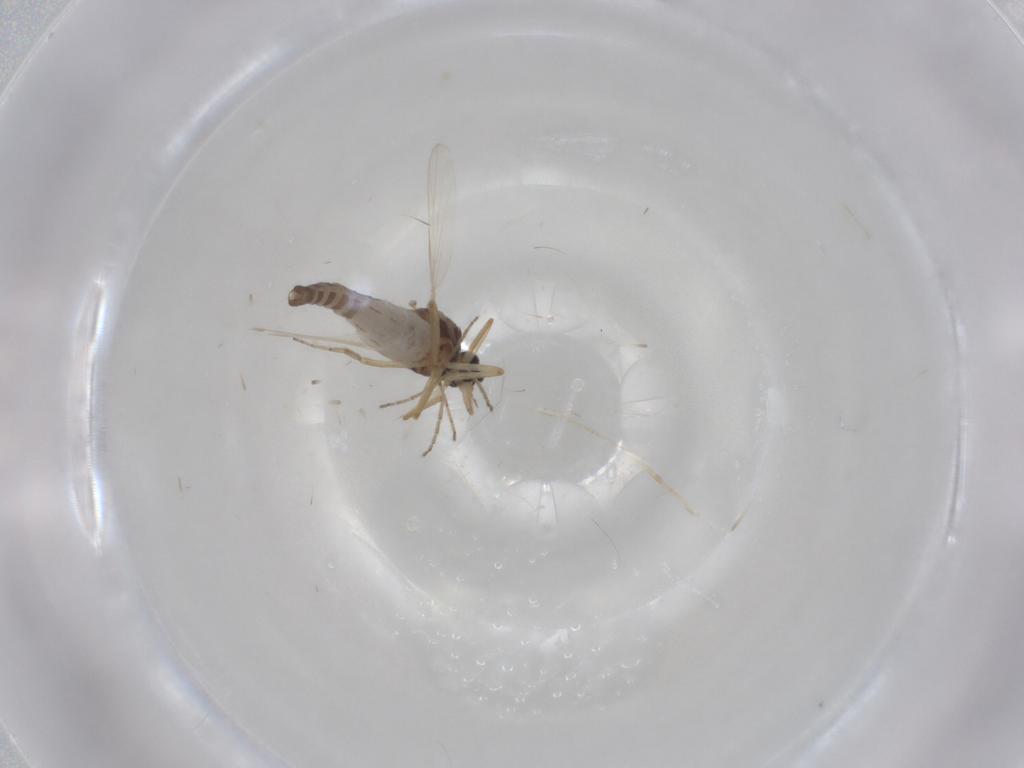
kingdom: Animalia
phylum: Arthropoda
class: Insecta
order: Diptera
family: Ceratopogonidae
